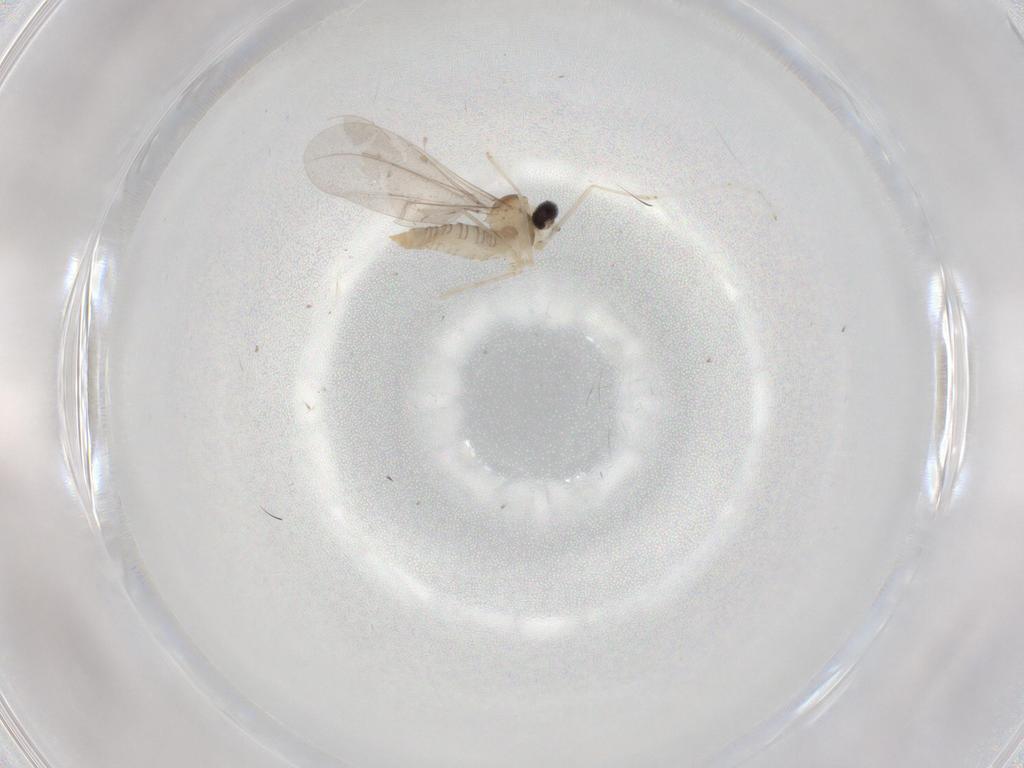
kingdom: Animalia
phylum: Arthropoda
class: Insecta
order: Diptera
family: Cecidomyiidae
